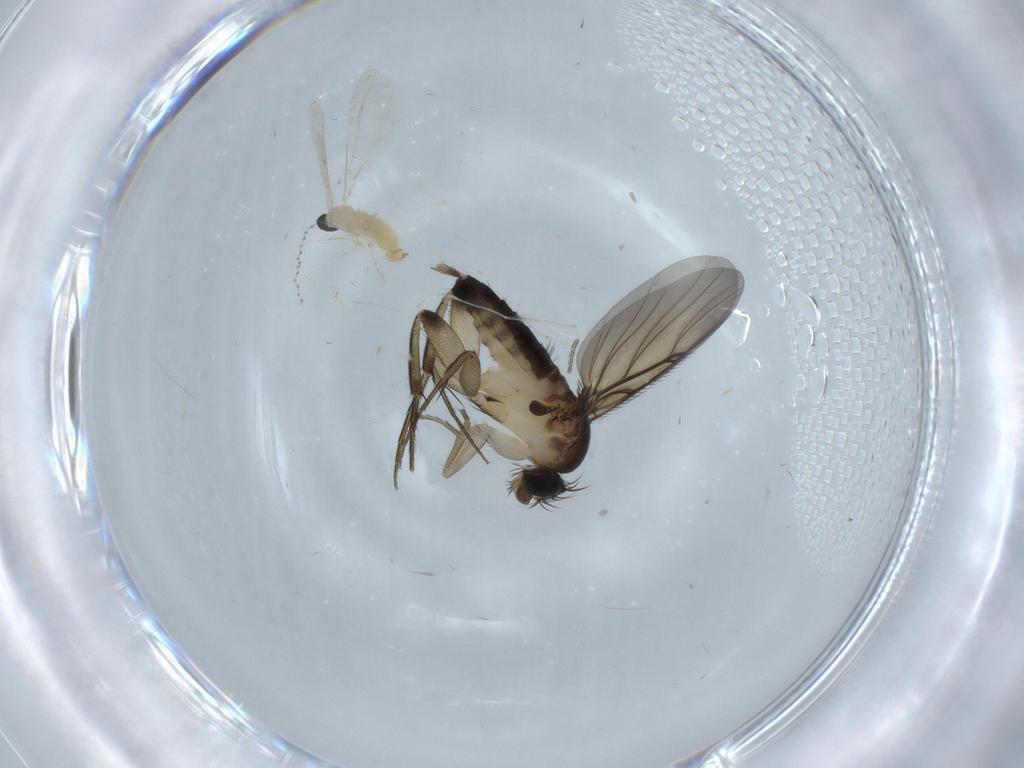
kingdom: Animalia
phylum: Arthropoda
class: Insecta
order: Diptera
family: Cecidomyiidae
